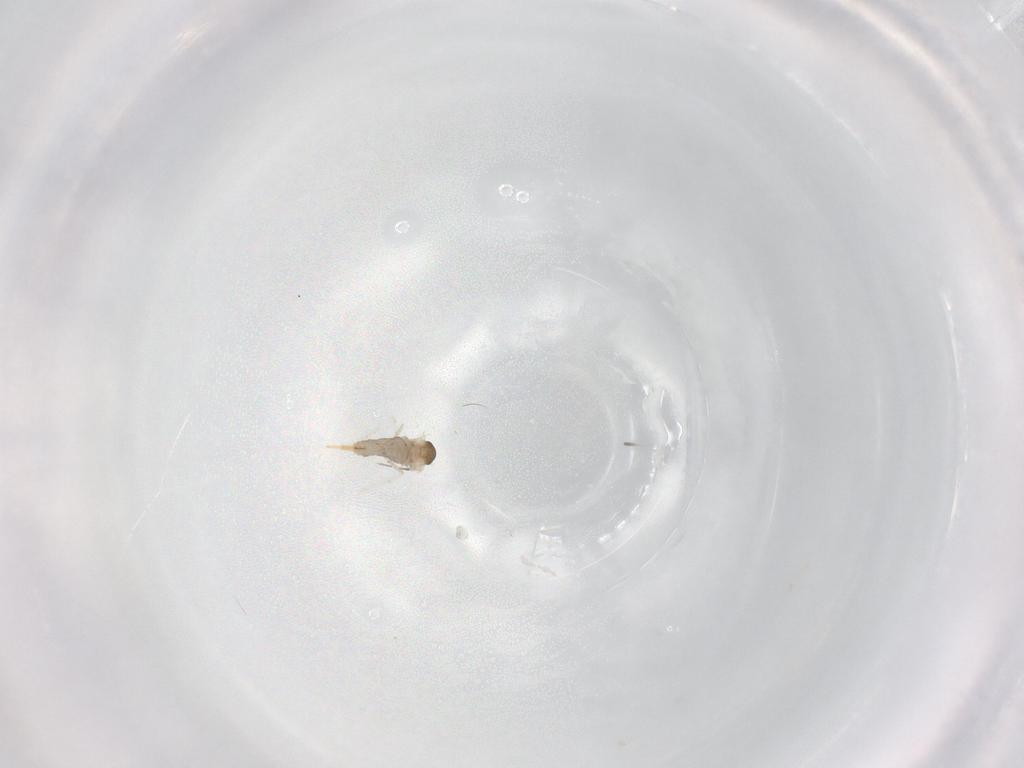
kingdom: Animalia
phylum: Arthropoda
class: Insecta
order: Diptera
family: Cecidomyiidae
